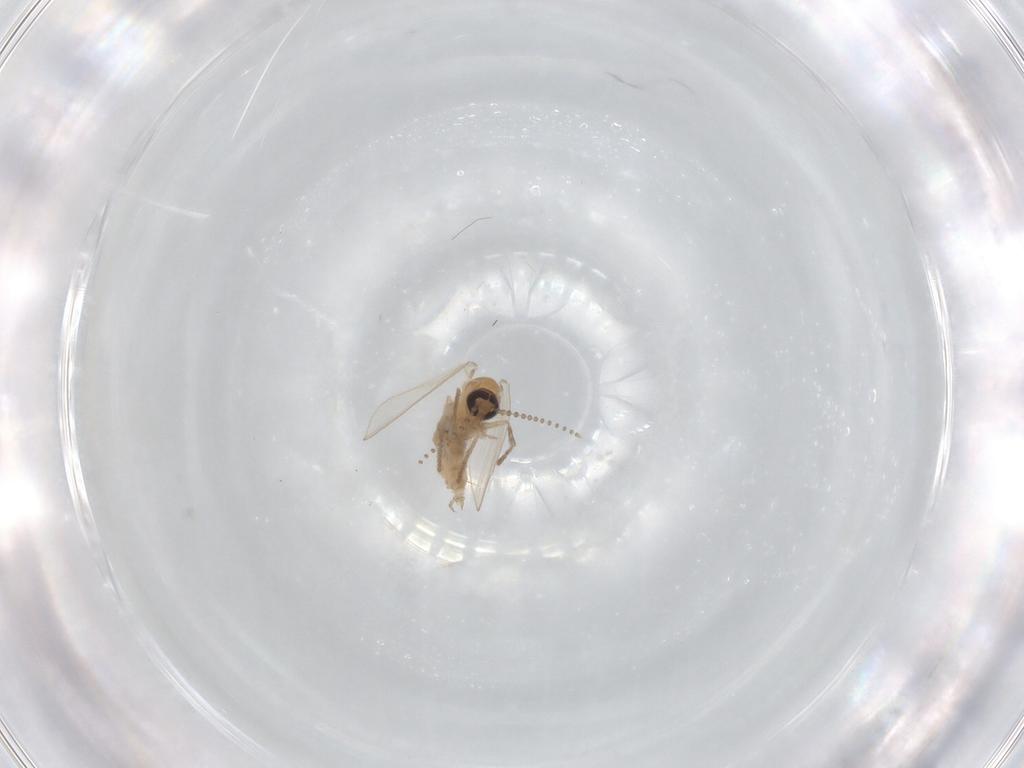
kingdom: Animalia
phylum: Arthropoda
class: Insecta
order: Diptera
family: Psychodidae
